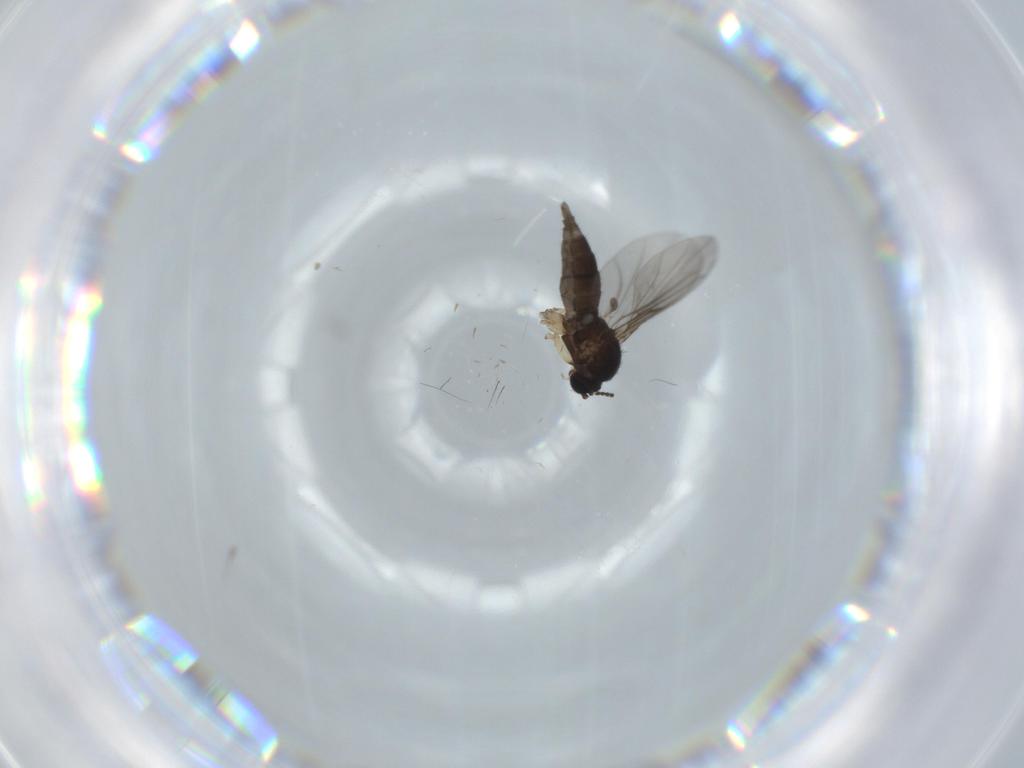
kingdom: Animalia
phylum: Arthropoda
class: Insecta
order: Diptera
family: Sciaridae
